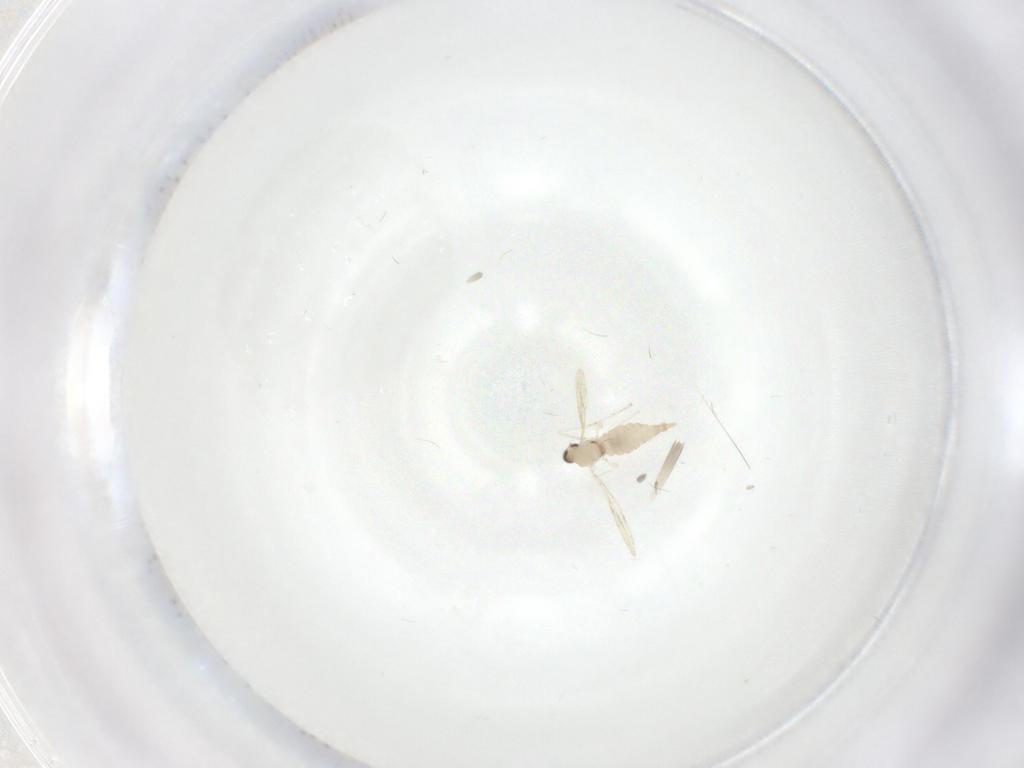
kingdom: Animalia
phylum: Arthropoda
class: Insecta
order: Diptera
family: Cecidomyiidae
